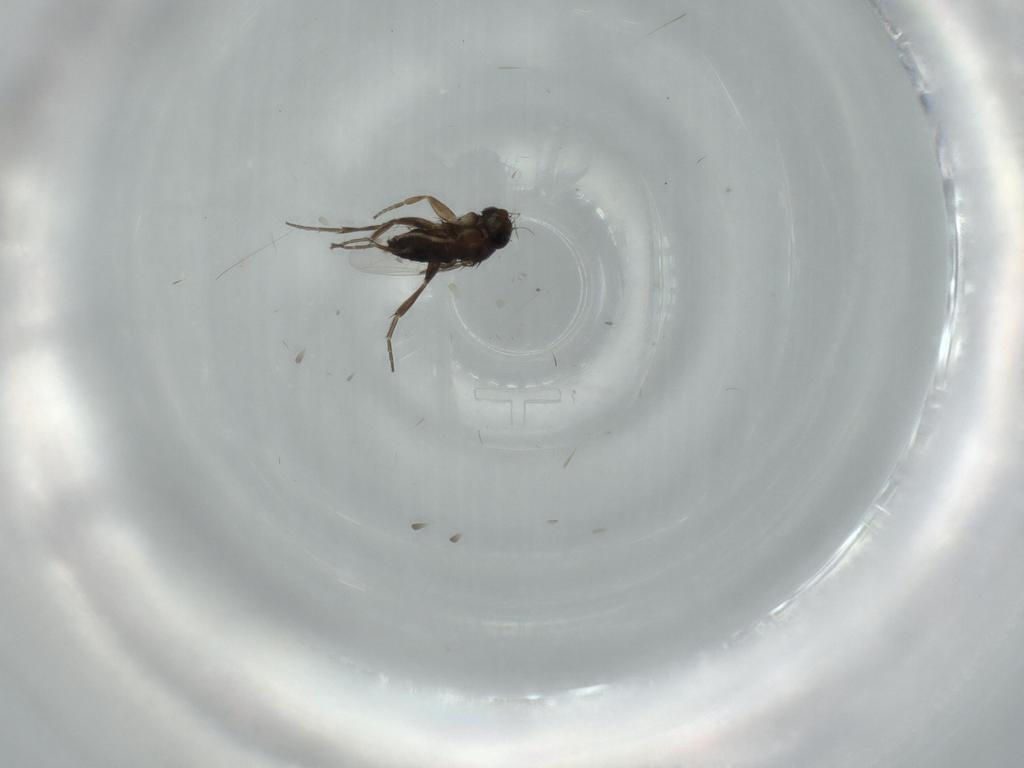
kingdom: Animalia
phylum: Arthropoda
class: Insecta
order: Diptera
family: Phoridae
